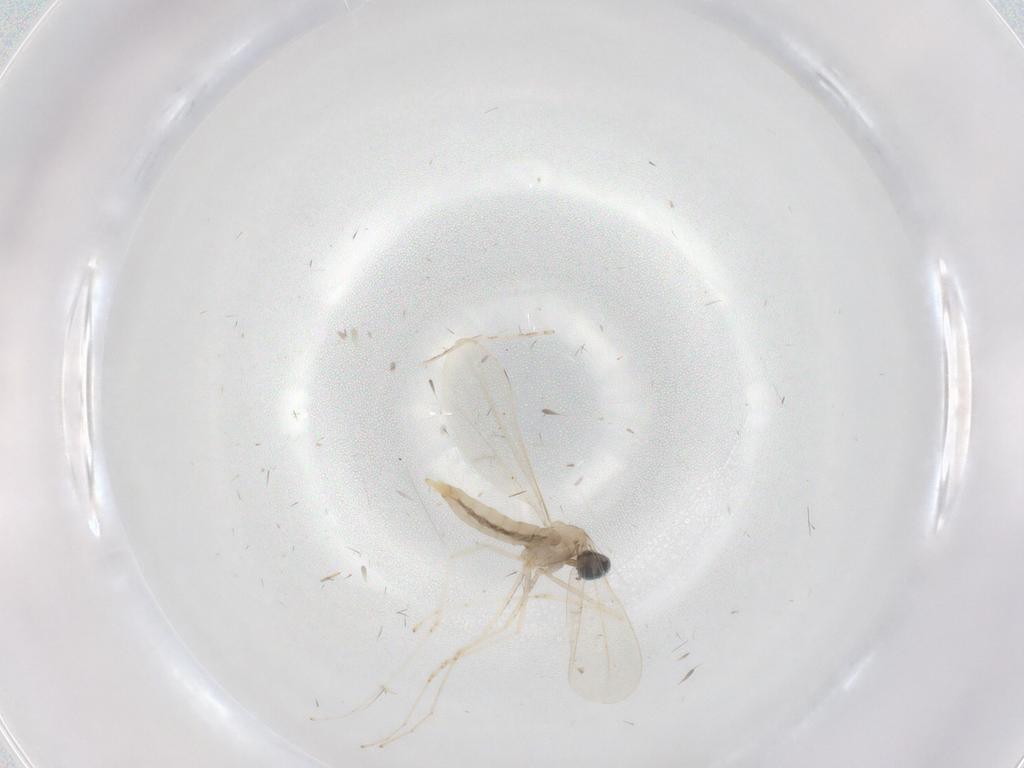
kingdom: Animalia
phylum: Arthropoda
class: Insecta
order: Diptera
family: Cecidomyiidae
